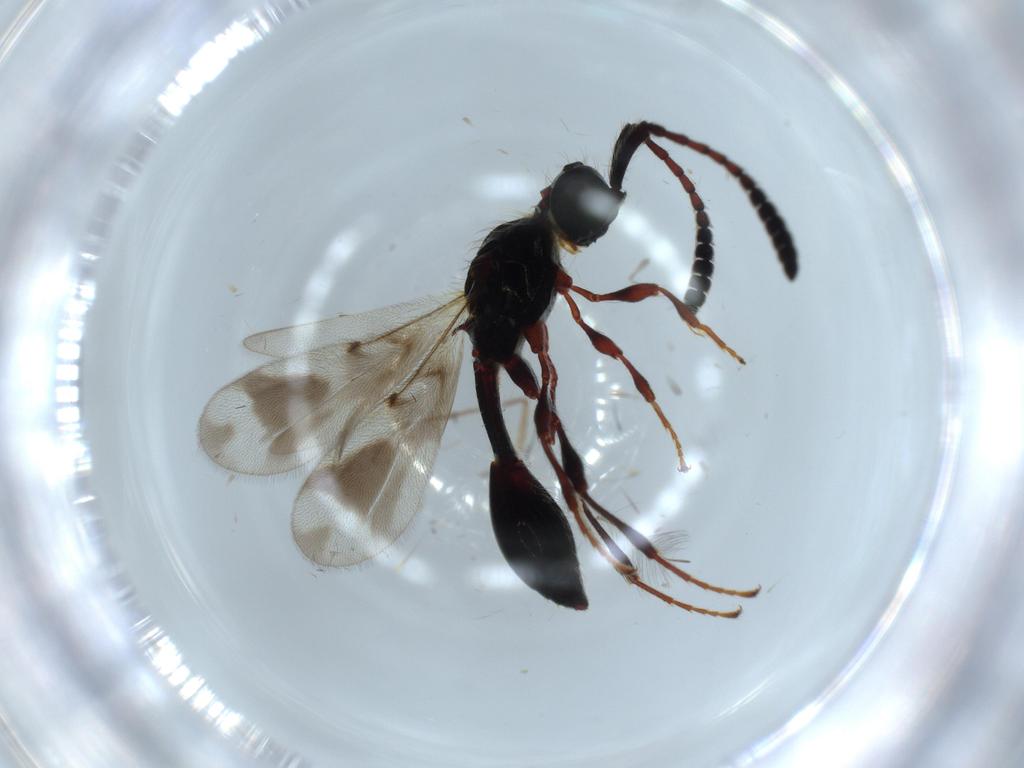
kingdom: Animalia
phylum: Arthropoda
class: Insecta
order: Hymenoptera
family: Diapriidae
